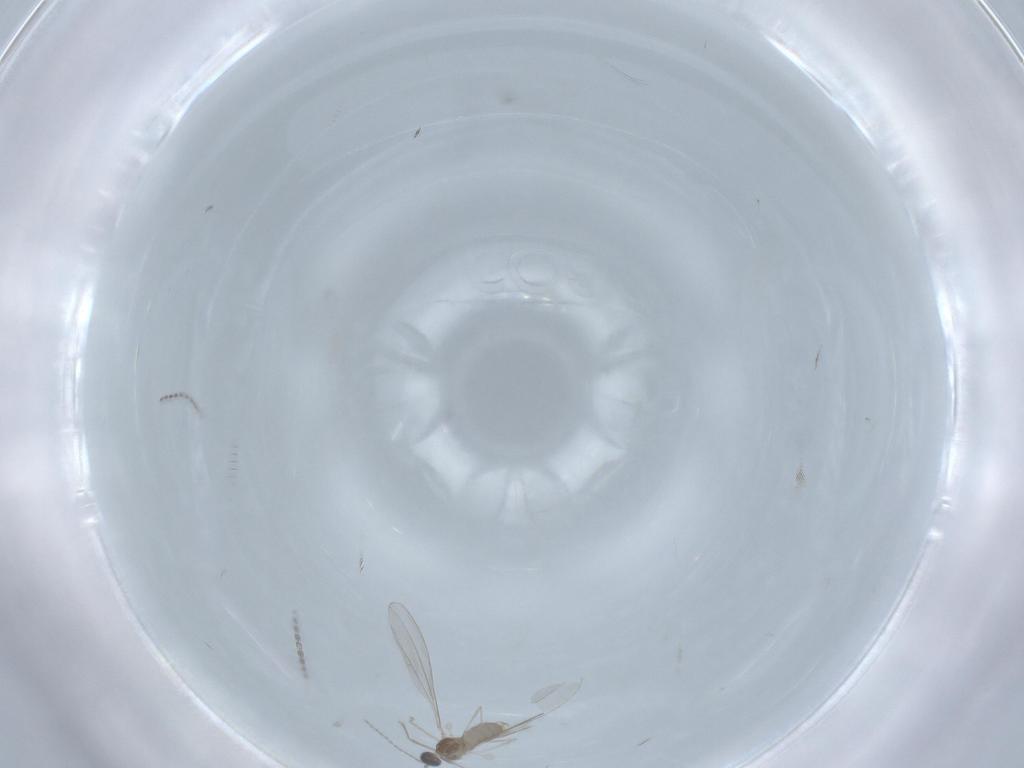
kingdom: Animalia
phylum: Arthropoda
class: Insecta
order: Diptera
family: Cecidomyiidae
